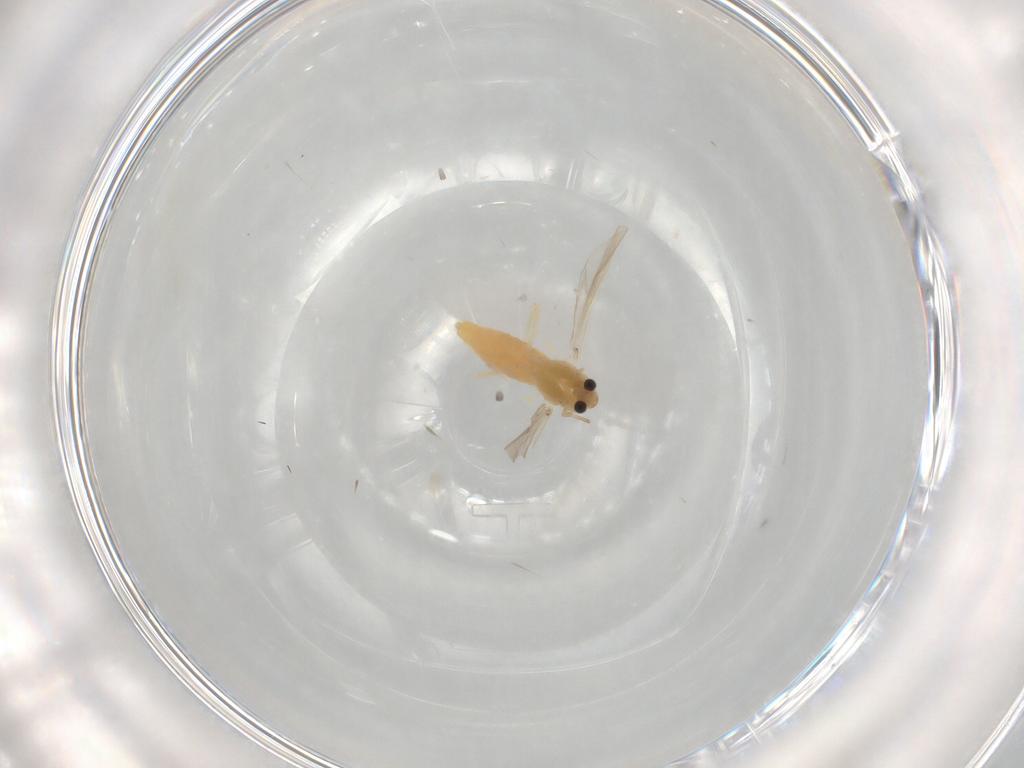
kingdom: Animalia
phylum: Arthropoda
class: Insecta
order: Diptera
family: Chironomidae
